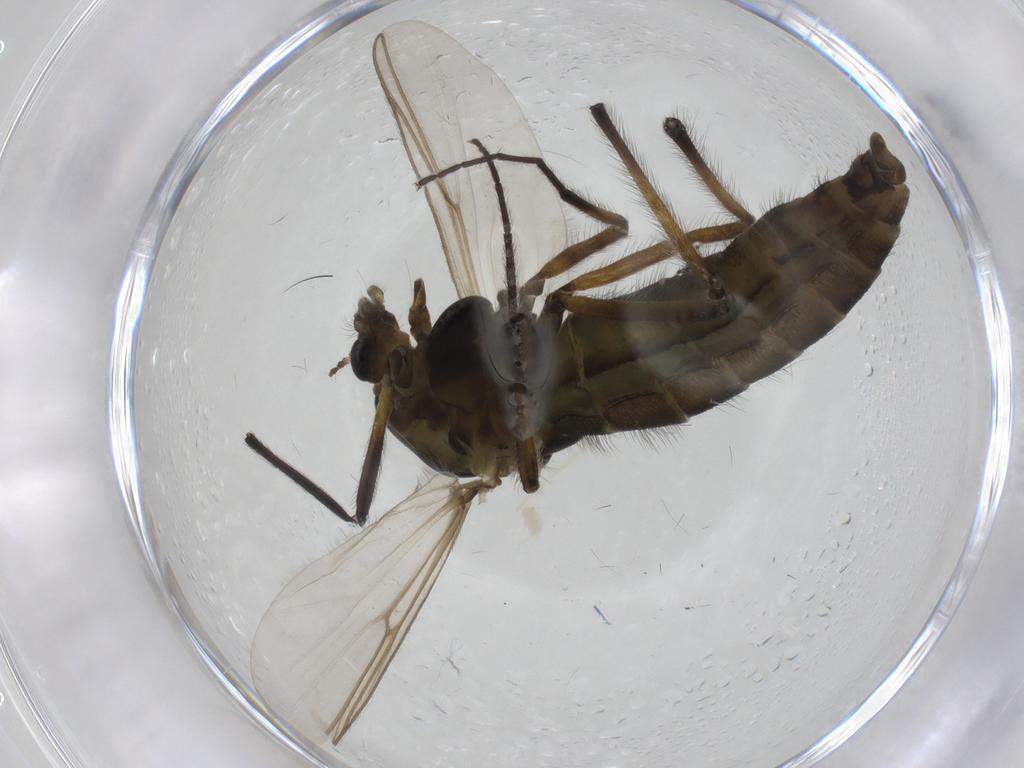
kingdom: Animalia
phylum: Arthropoda
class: Insecta
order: Diptera
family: Chironomidae
